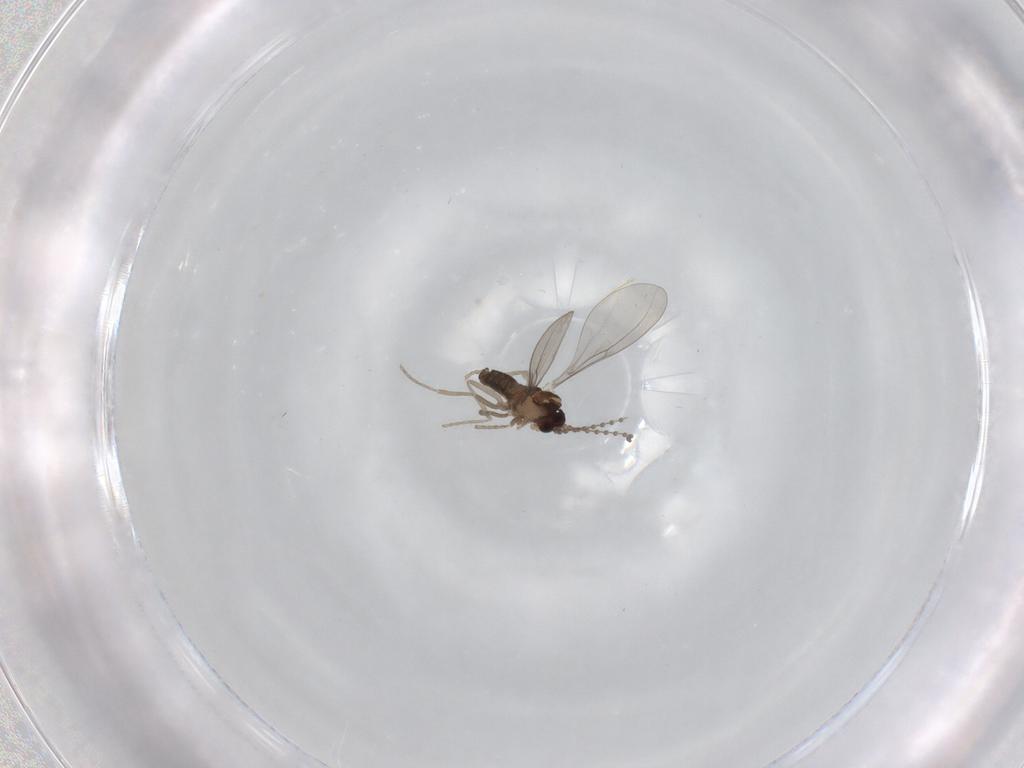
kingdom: Animalia
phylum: Arthropoda
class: Insecta
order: Diptera
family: Cecidomyiidae
